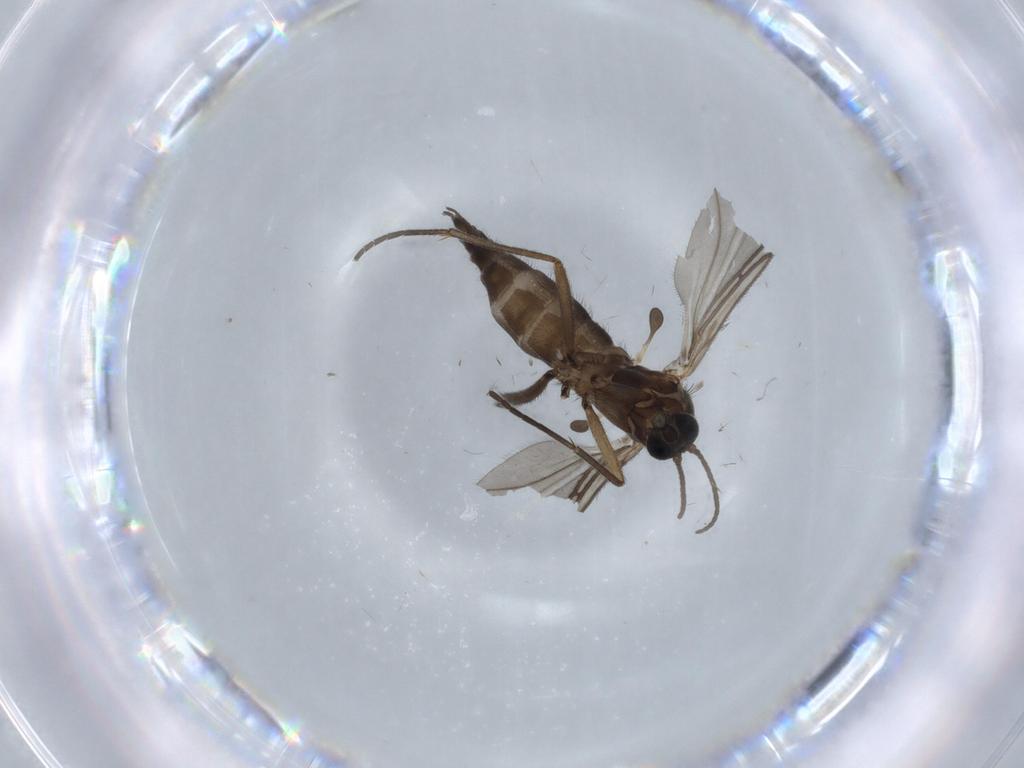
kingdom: Animalia
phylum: Arthropoda
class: Insecta
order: Diptera
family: Sciaridae
